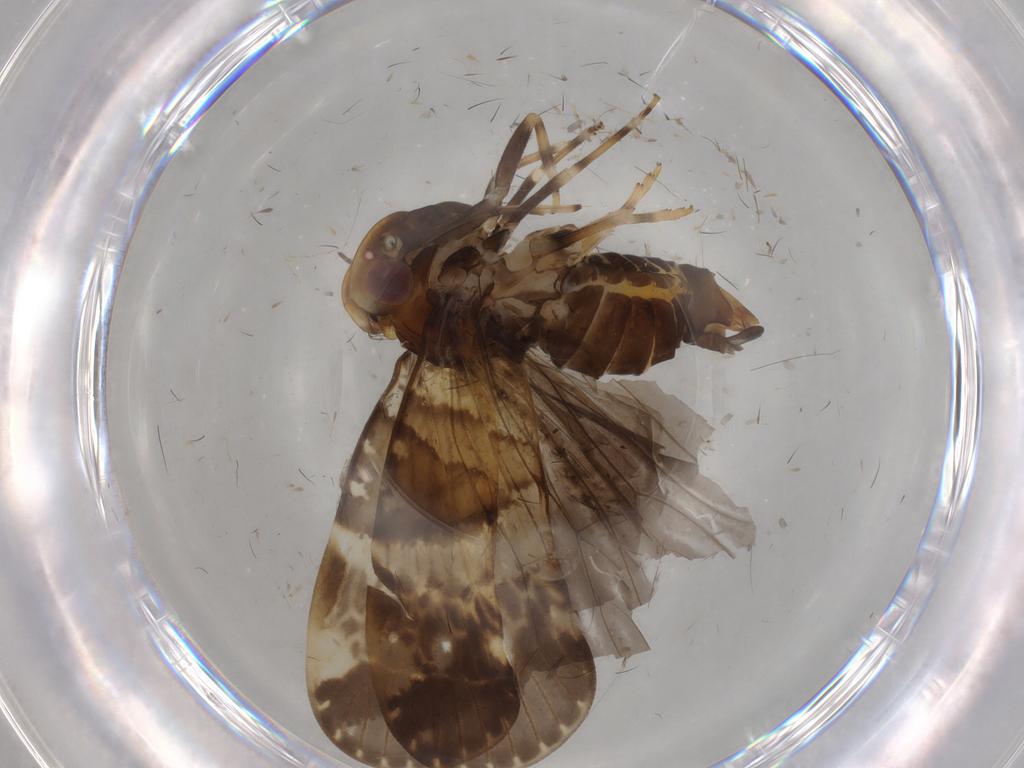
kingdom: Animalia
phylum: Arthropoda
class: Insecta
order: Hemiptera
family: Cixiidae
